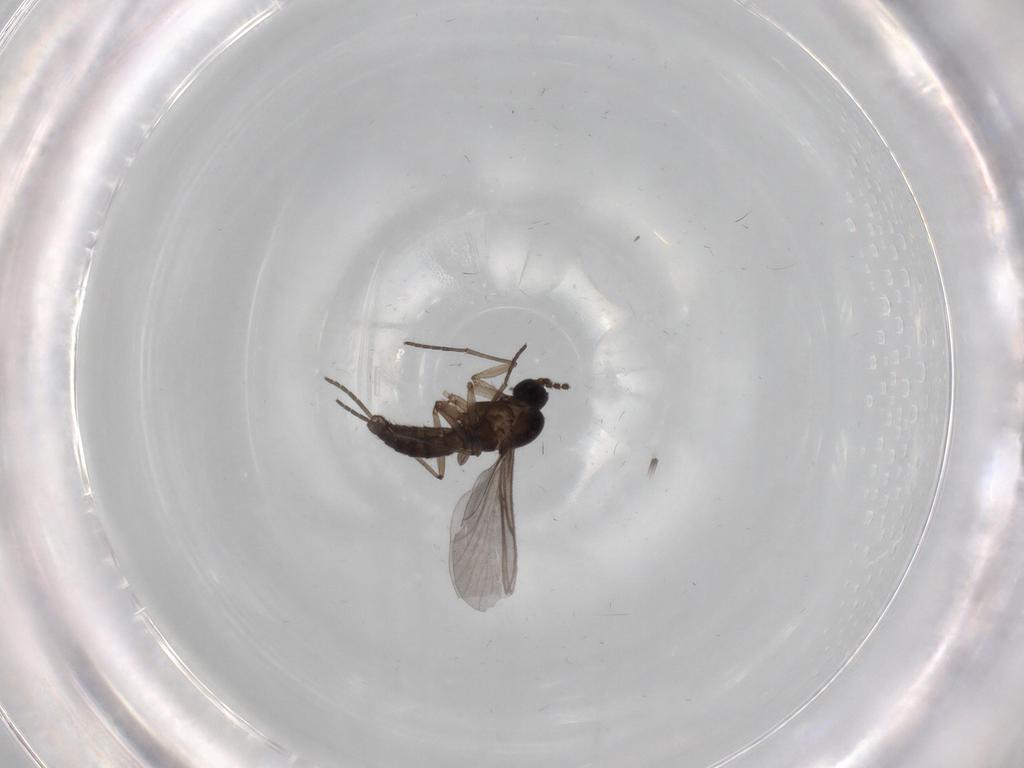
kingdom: Animalia
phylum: Arthropoda
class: Insecta
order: Diptera
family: Psychodidae
